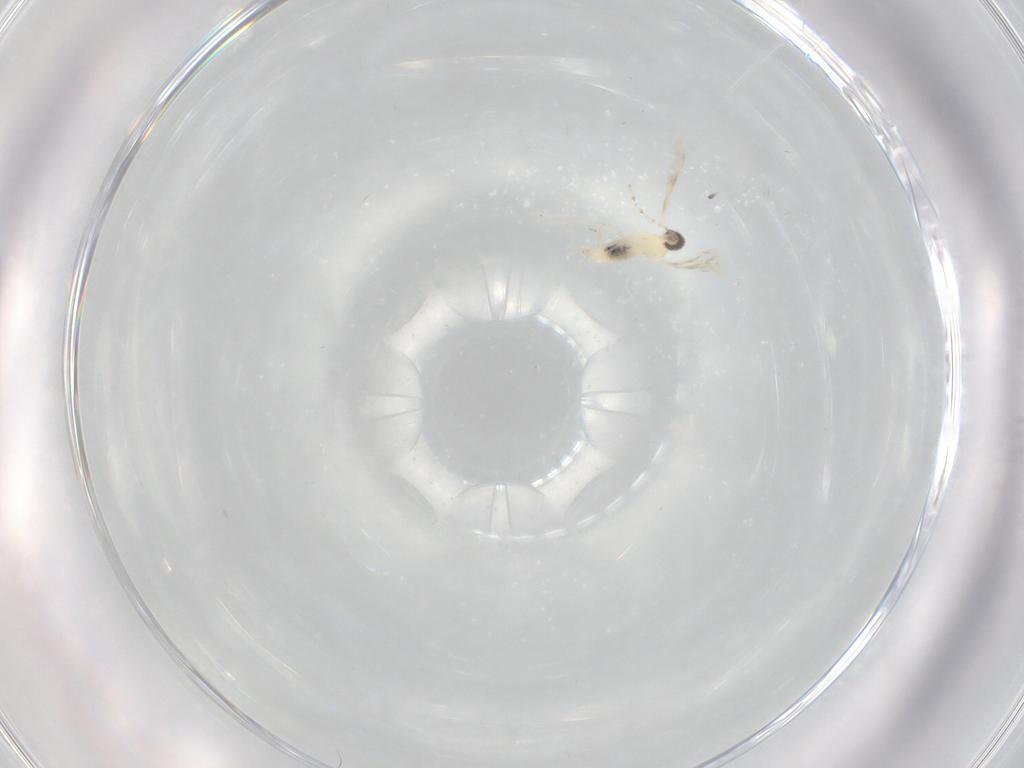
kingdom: Animalia
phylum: Arthropoda
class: Insecta
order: Diptera
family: Cecidomyiidae
